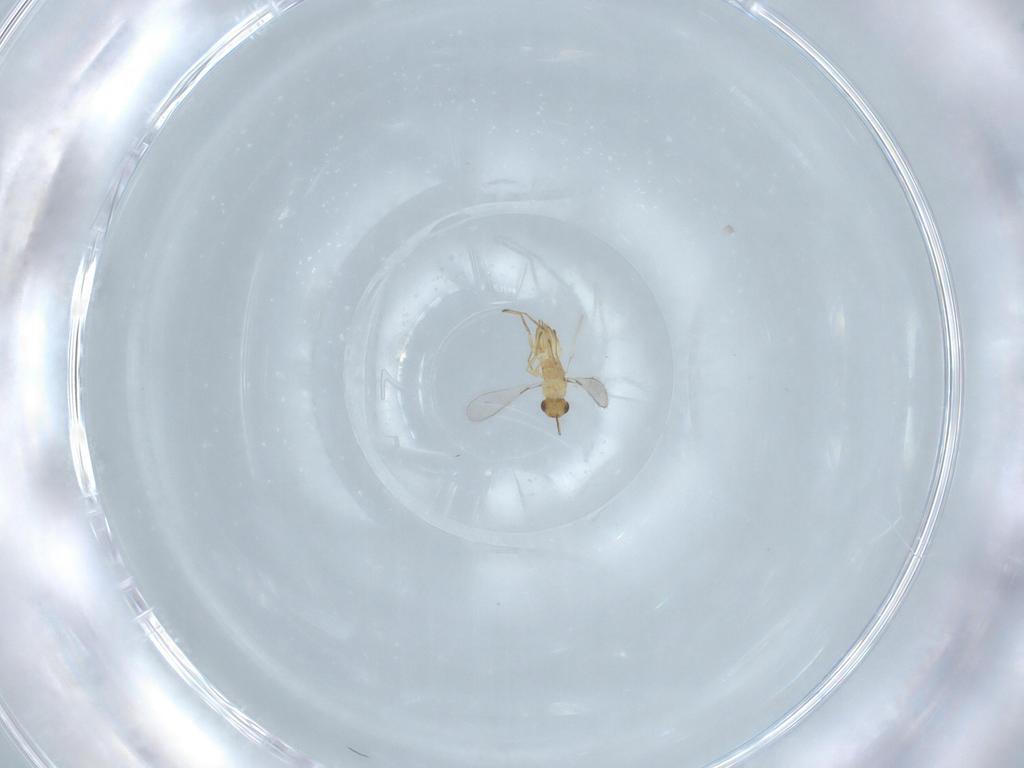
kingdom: Animalia
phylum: Arthropoda
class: Insecta
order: Hymenoptera
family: Mymaridae
